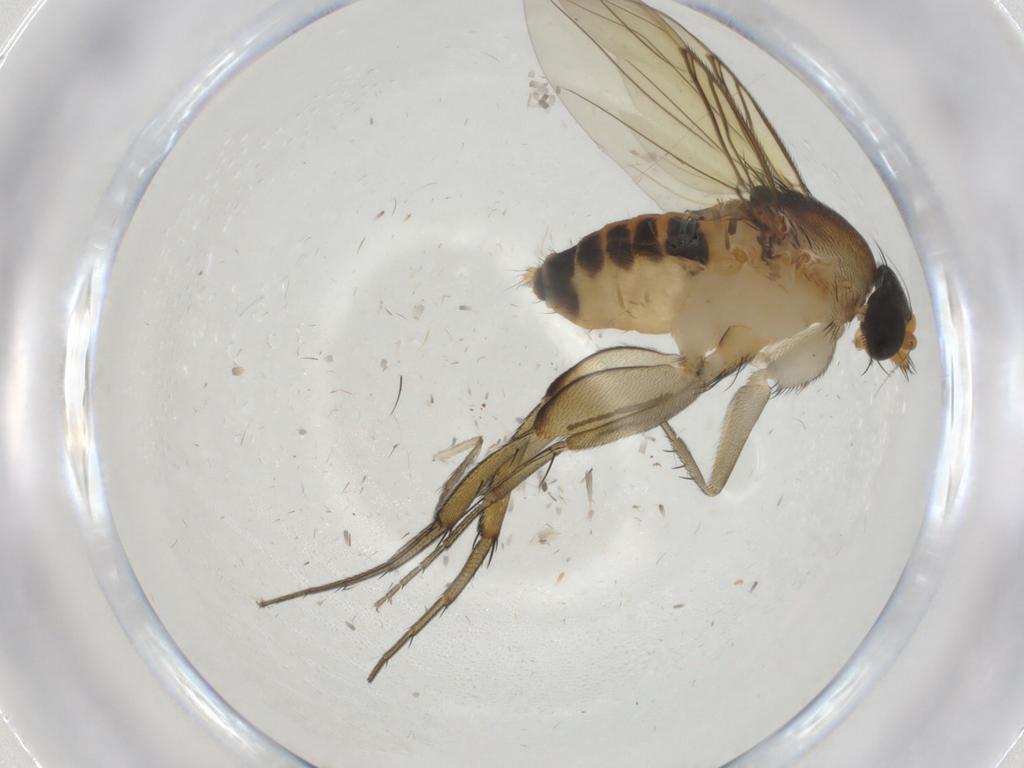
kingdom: Animalia
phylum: Arthropoda
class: Insecta
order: Diptera
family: Psychodidae
